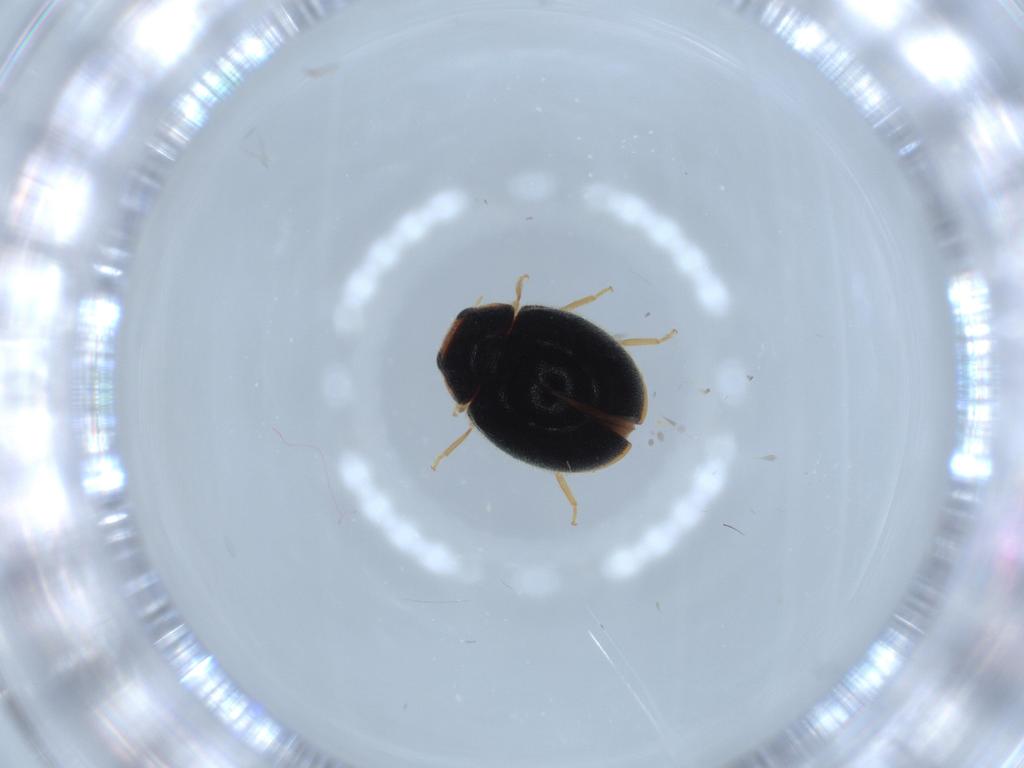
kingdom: Animalia
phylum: Arthropoda
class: Insecta
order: Coleoptera
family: Chrysomelidae
